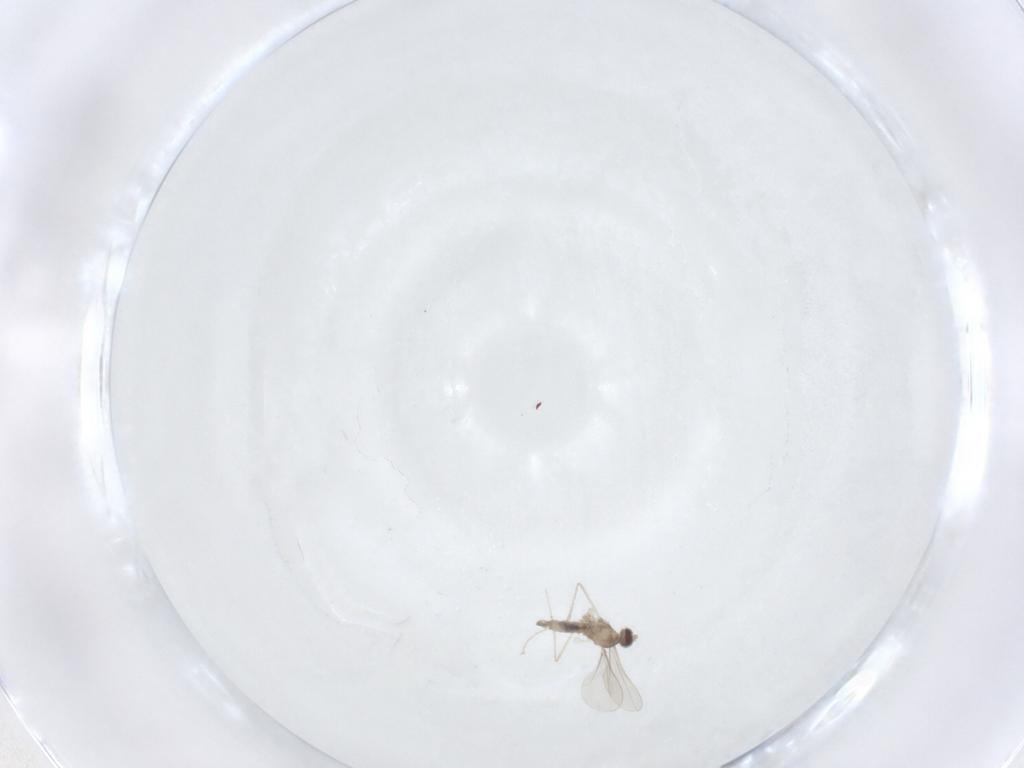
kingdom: Animalia
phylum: Arthropoda
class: Insecta
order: Diptera
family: Cecidomyiidae
